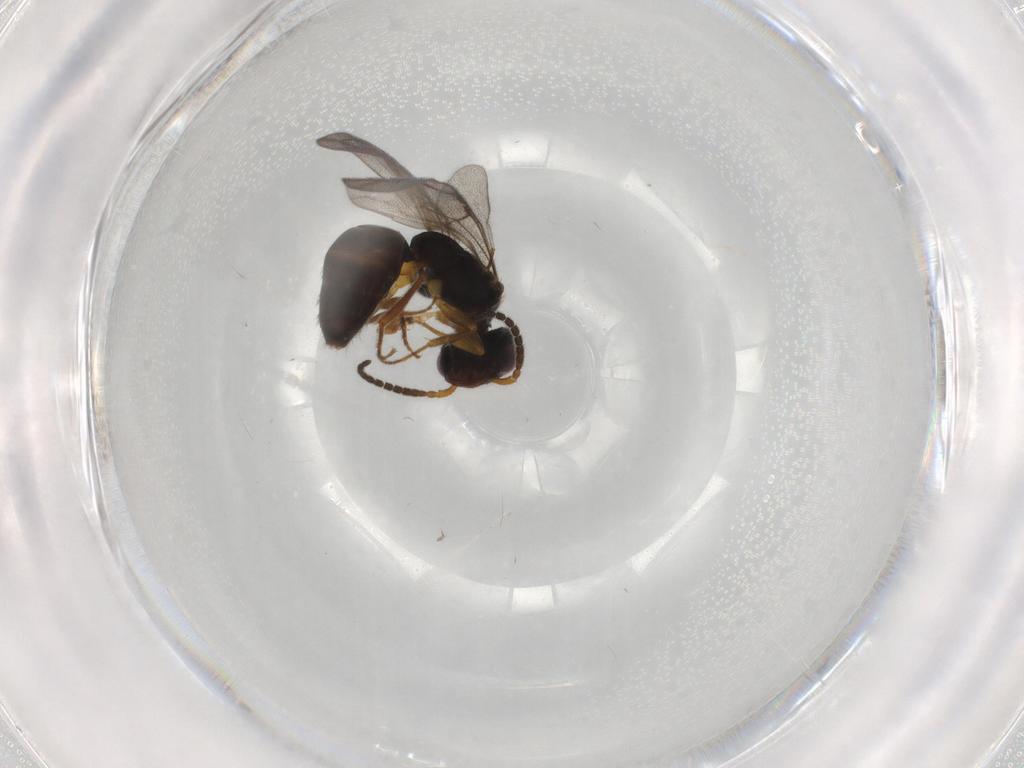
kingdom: Animalia
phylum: Arthropoda
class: Insecta
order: Hymenoptera
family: Bethylidae
